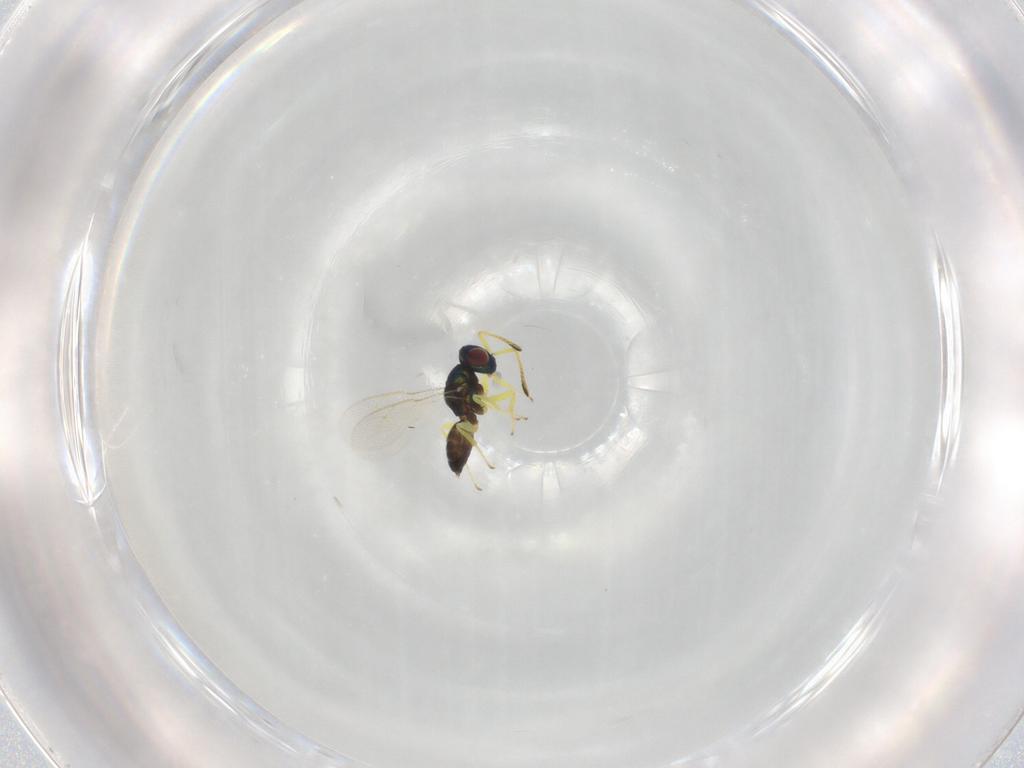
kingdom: Animalia
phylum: Arthropoda
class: Insecta
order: Hymenoptera
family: Pteromalidae
